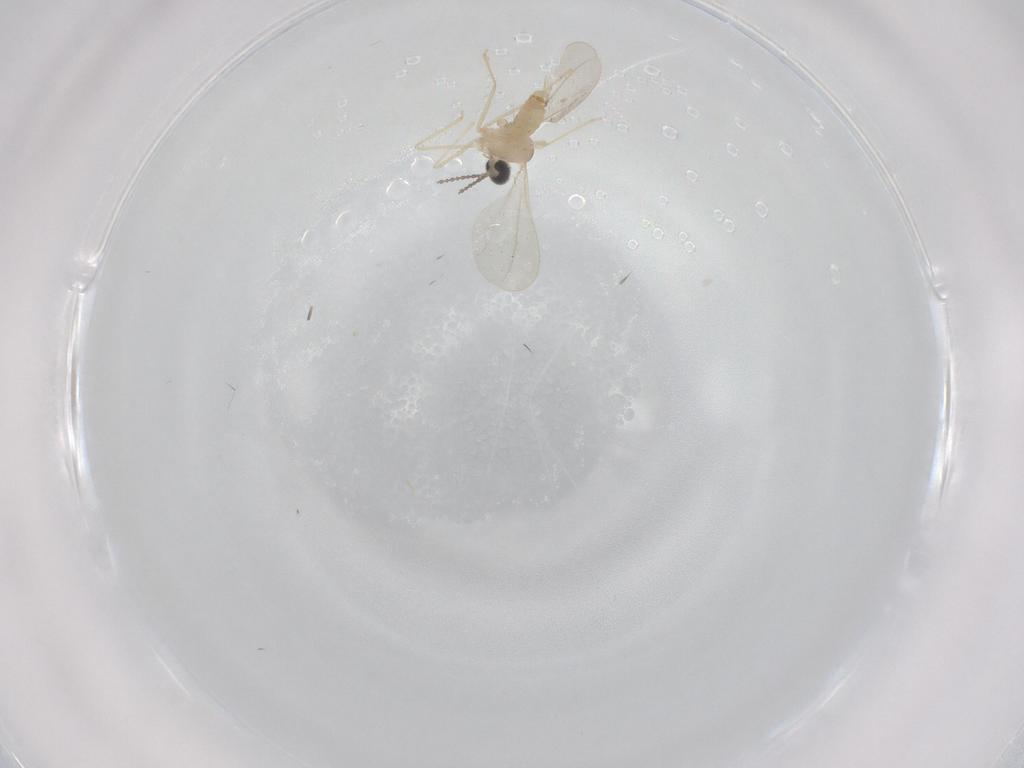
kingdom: Animalia
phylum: Arthropoda
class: Insecta
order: Diptera
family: Cecidomyiidae
